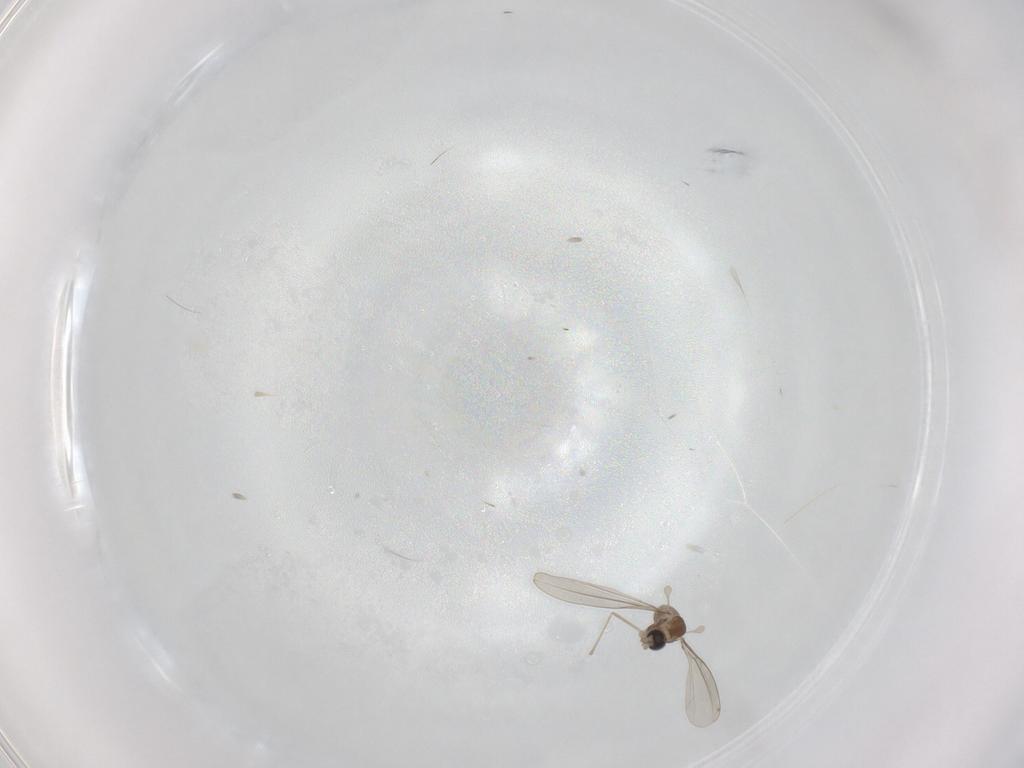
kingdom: Animalia
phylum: Arthropoda
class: Insecta
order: Diptera
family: Cecidomyiidae
